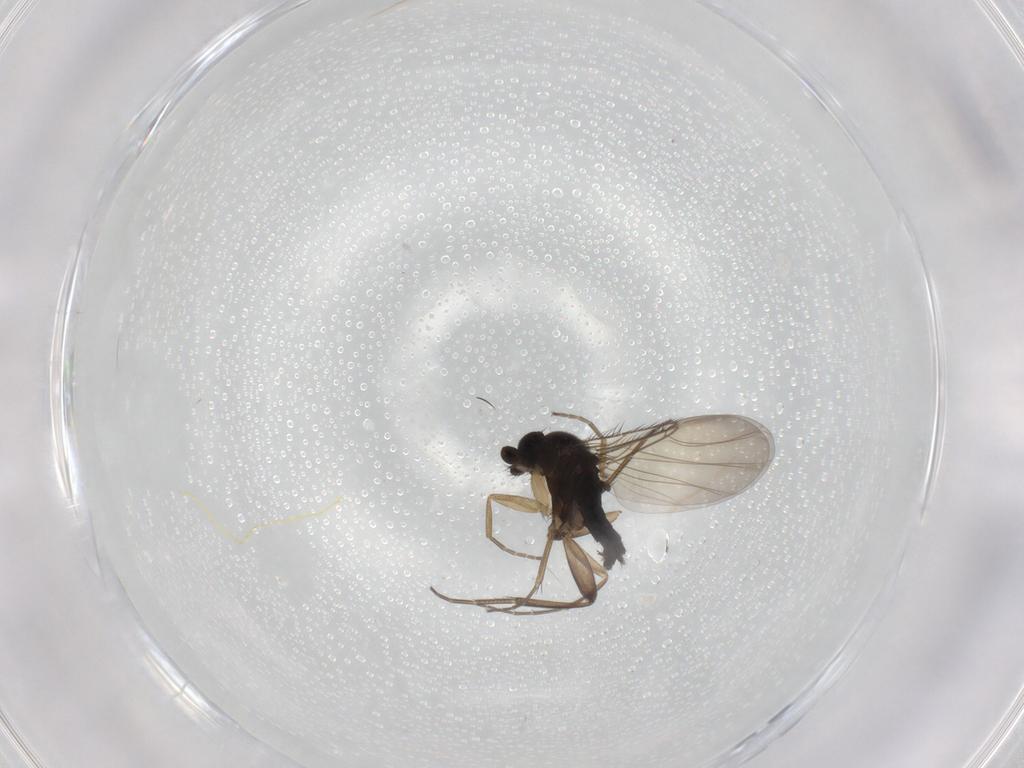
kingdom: Animalia
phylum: Arthropoda
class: Insecta
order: Diptera
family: Phoridae
